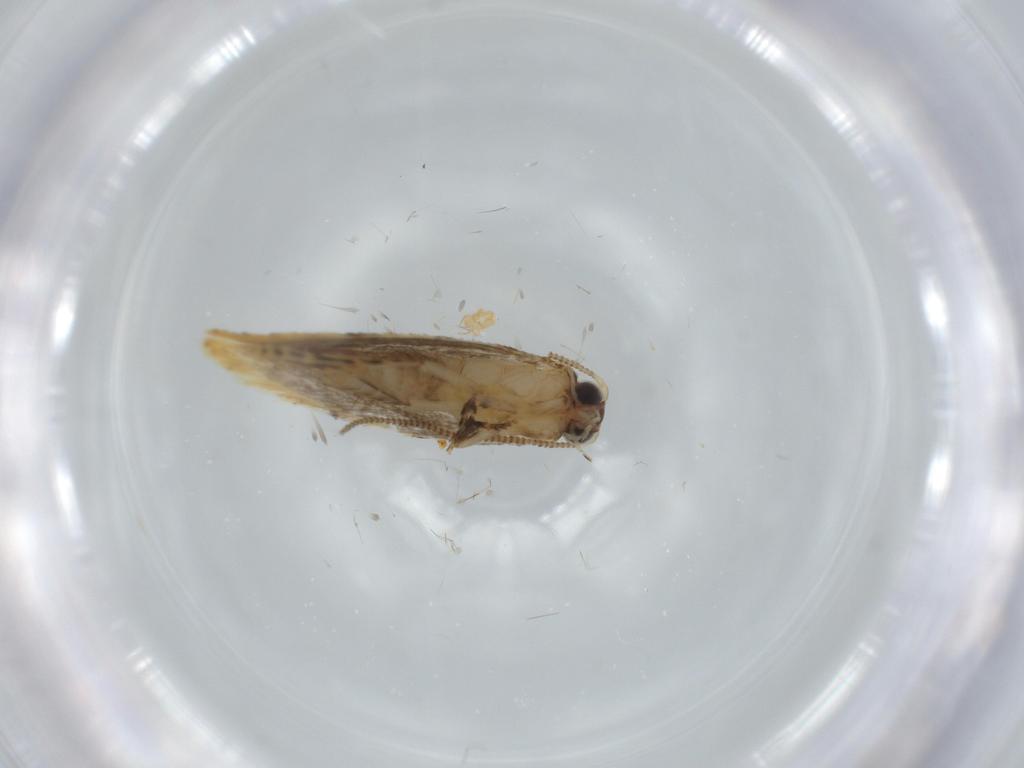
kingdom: Animalia
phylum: Arthropoda
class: Insecta
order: Lepidoptera
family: Tineidae
